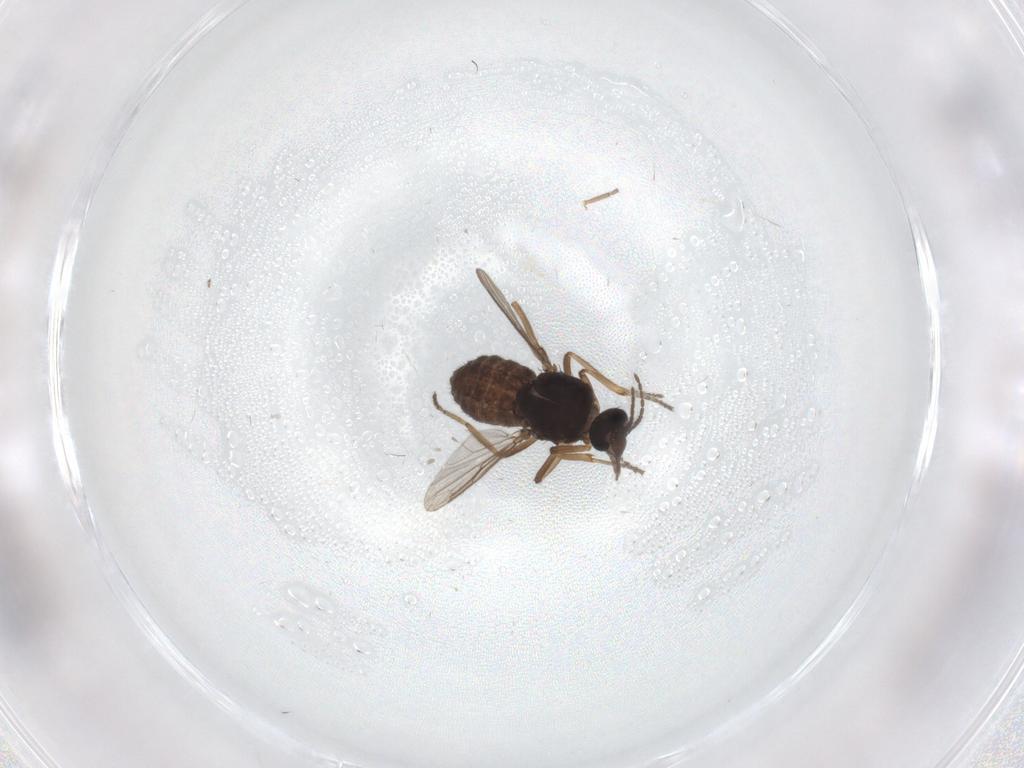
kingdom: Animalia
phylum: Arthropoda
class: Insecta
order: Diptera
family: Ceratopogonidae
